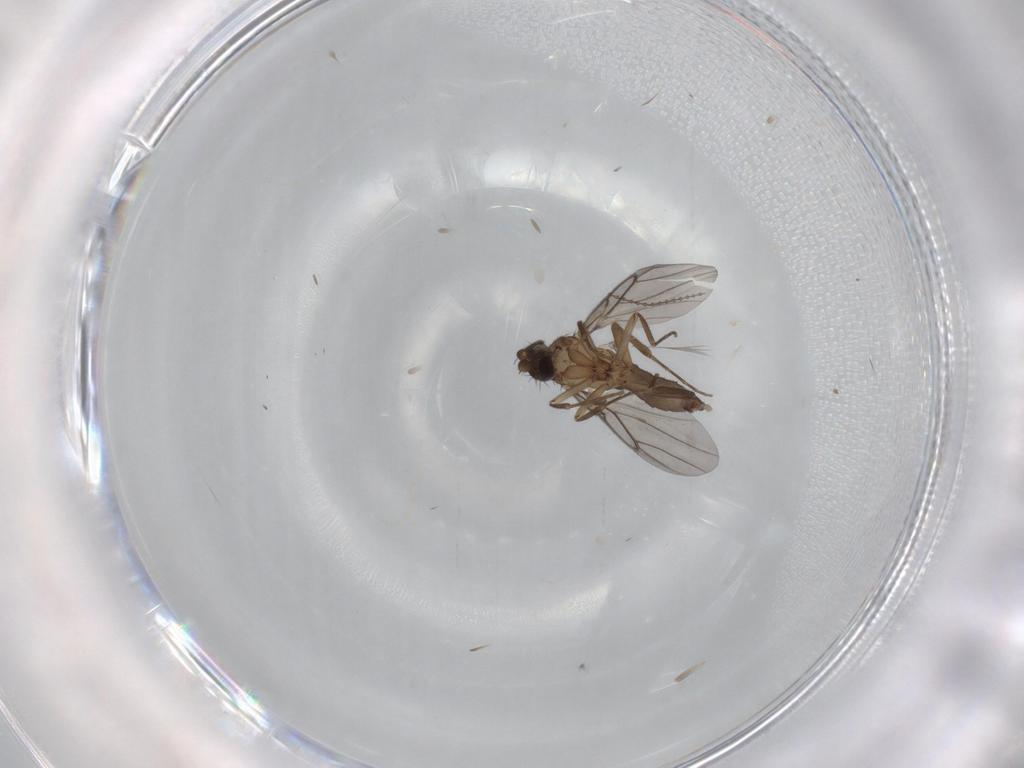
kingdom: Animalia
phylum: Arthropoda
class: Insecta
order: Diptera
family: Phoridae
